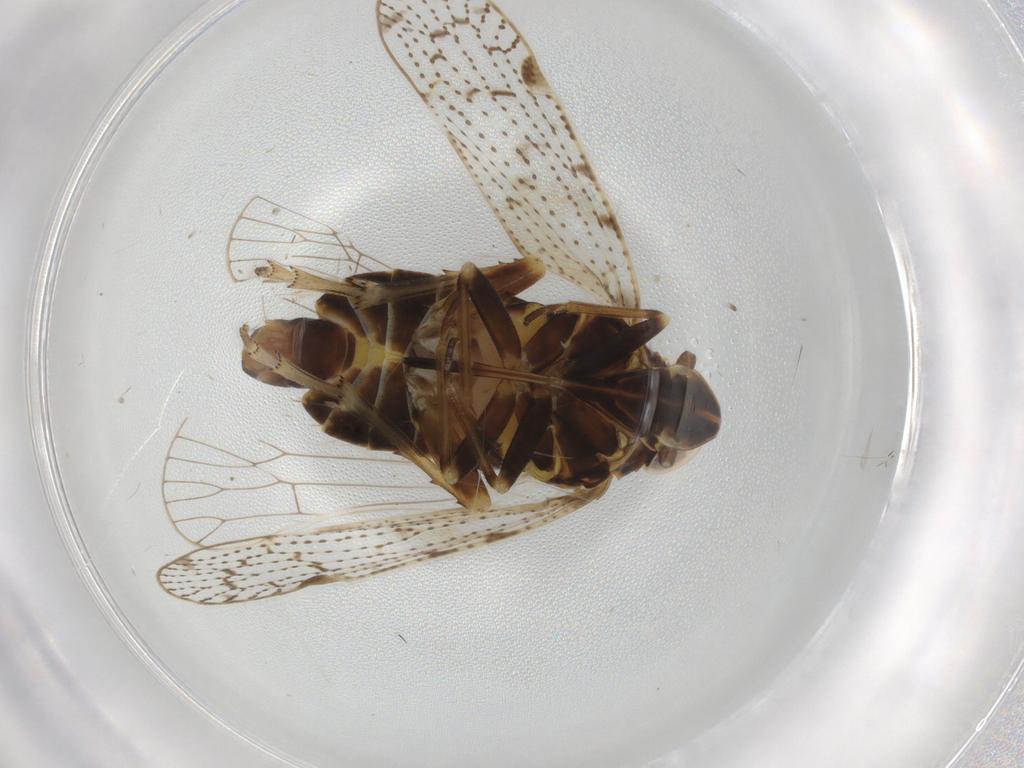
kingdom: Animalia
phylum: Arthropoda
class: Insecta
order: Hemiptera
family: Cixiidae
